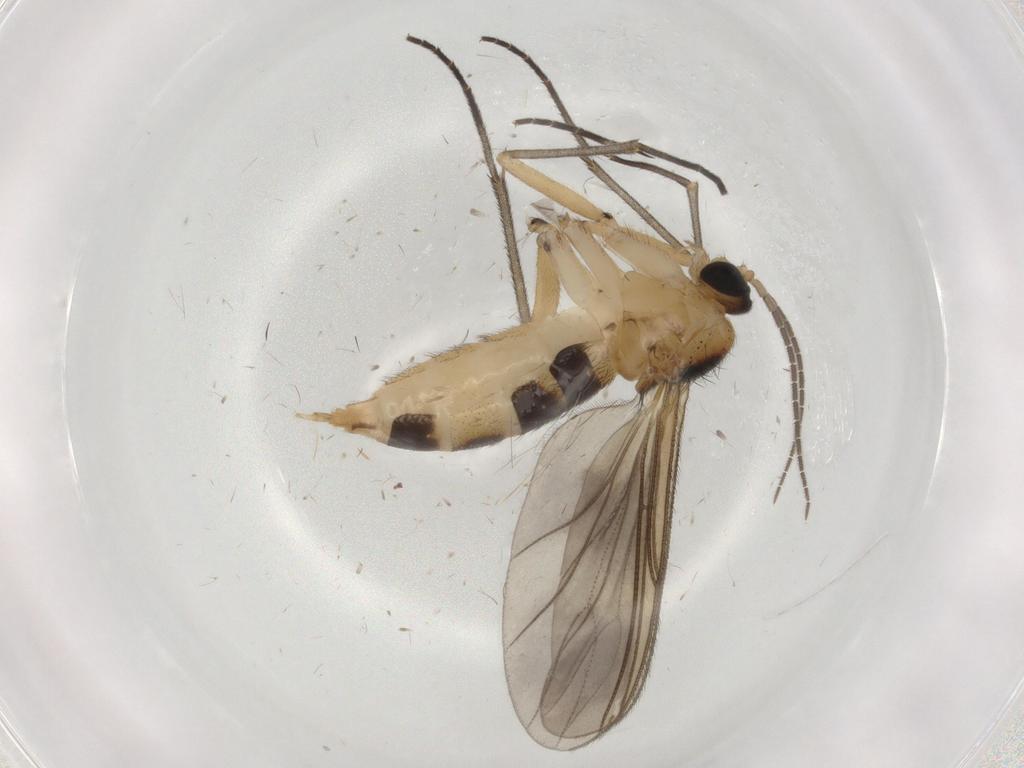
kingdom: Animalia
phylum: Arthropoda
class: Insecta
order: Diptera
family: Sciaridae
